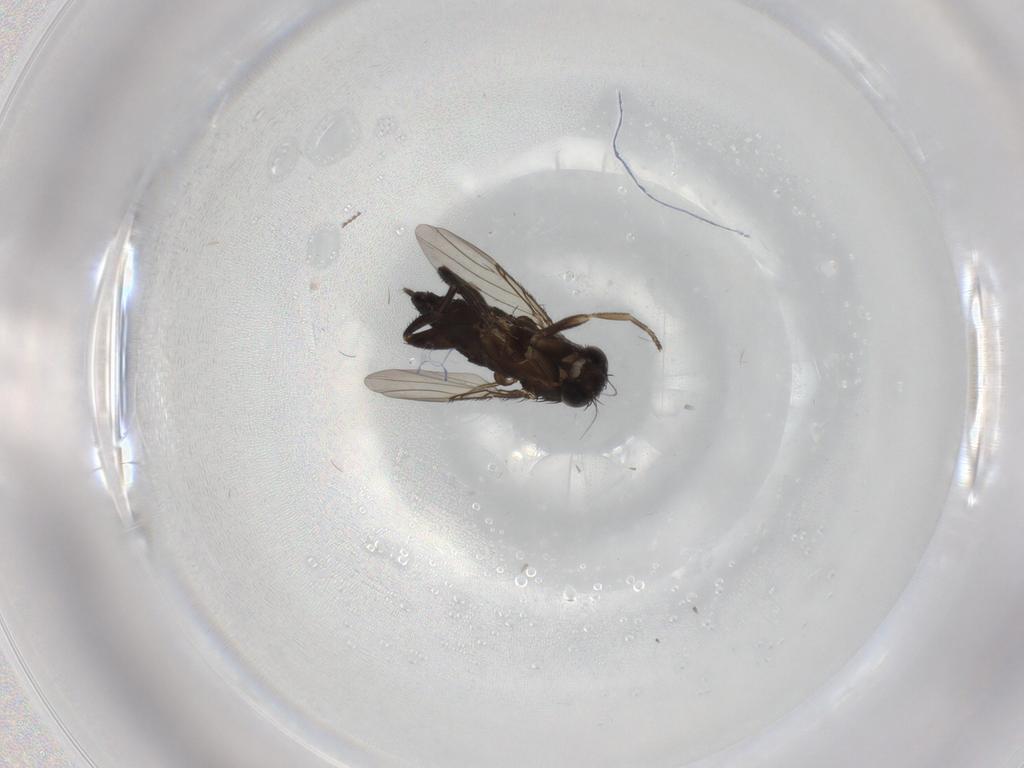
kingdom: Animalia
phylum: Arthropoda
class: Insecta
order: Diptera
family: Phoridae
